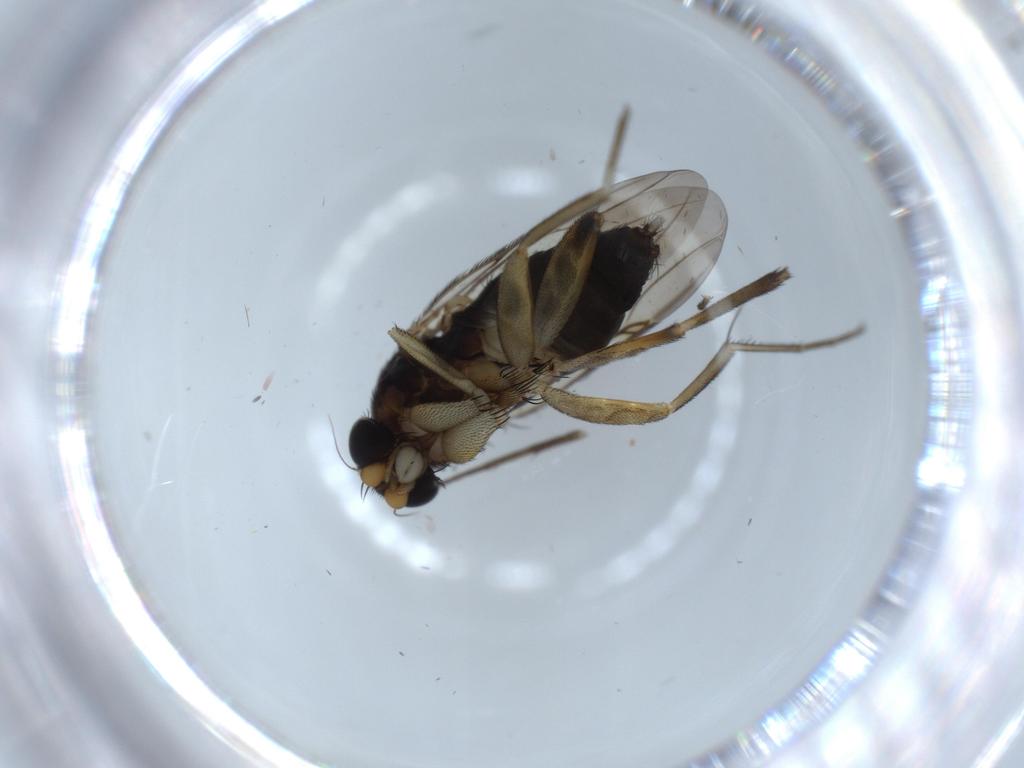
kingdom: Animalia
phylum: Arthropoda
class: Insecta
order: Diptera
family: Phoridae
